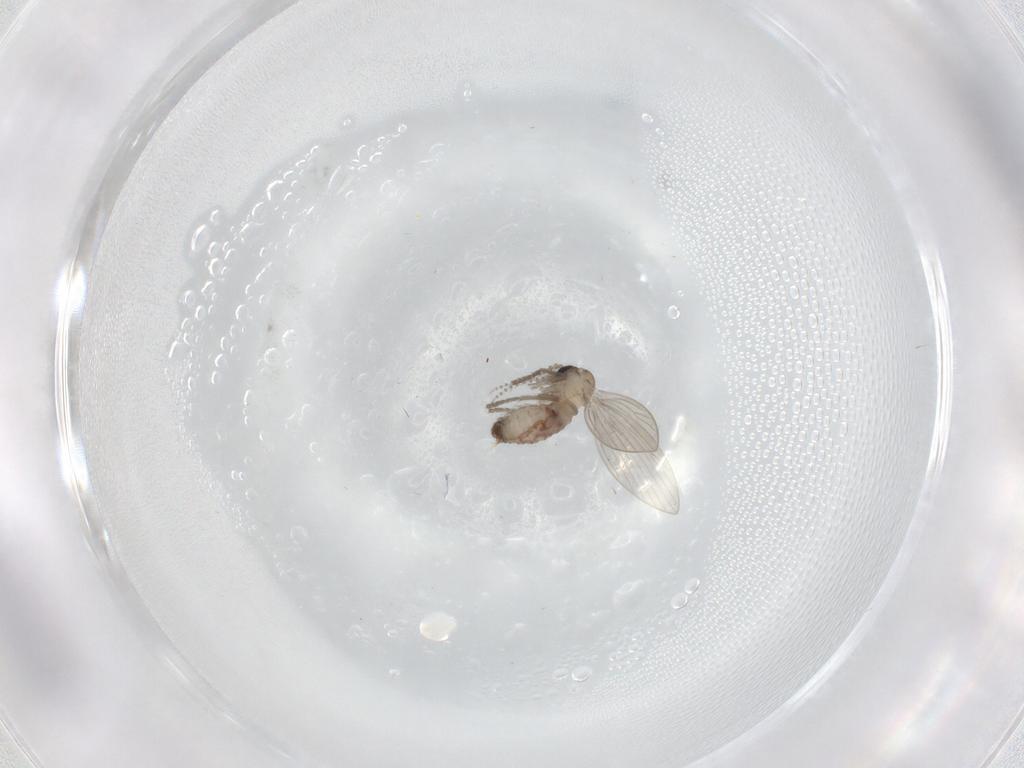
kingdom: Animalia
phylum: Arthropoda
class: Insecta
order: Diptera
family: Psychodidae
